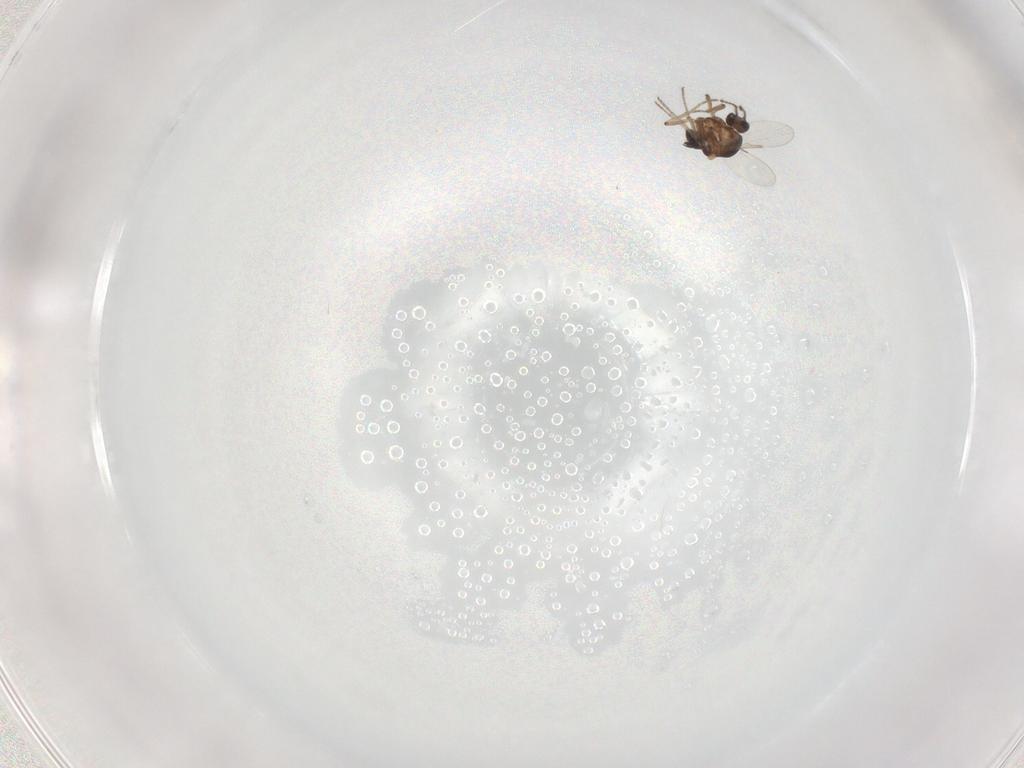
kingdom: Animalia
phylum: Arthropoda
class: Insecta
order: Diptera
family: Ceratopogonidae
